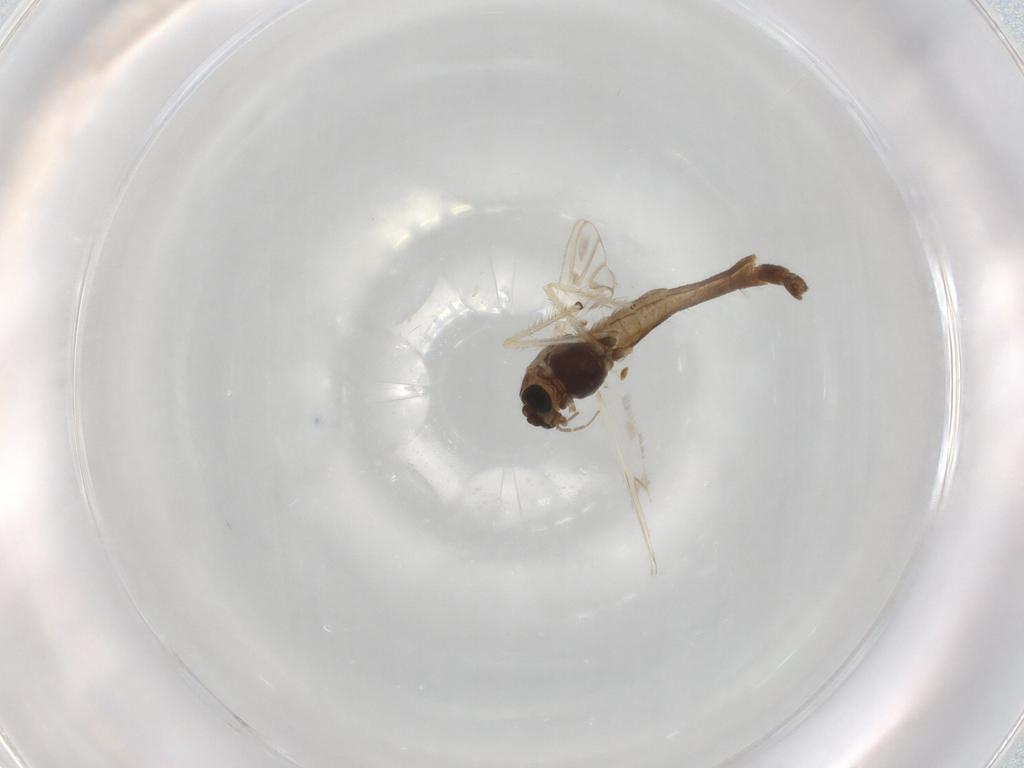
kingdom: Animalia
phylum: Arthropoda
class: Insecta
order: Diptera
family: Chironomidae
